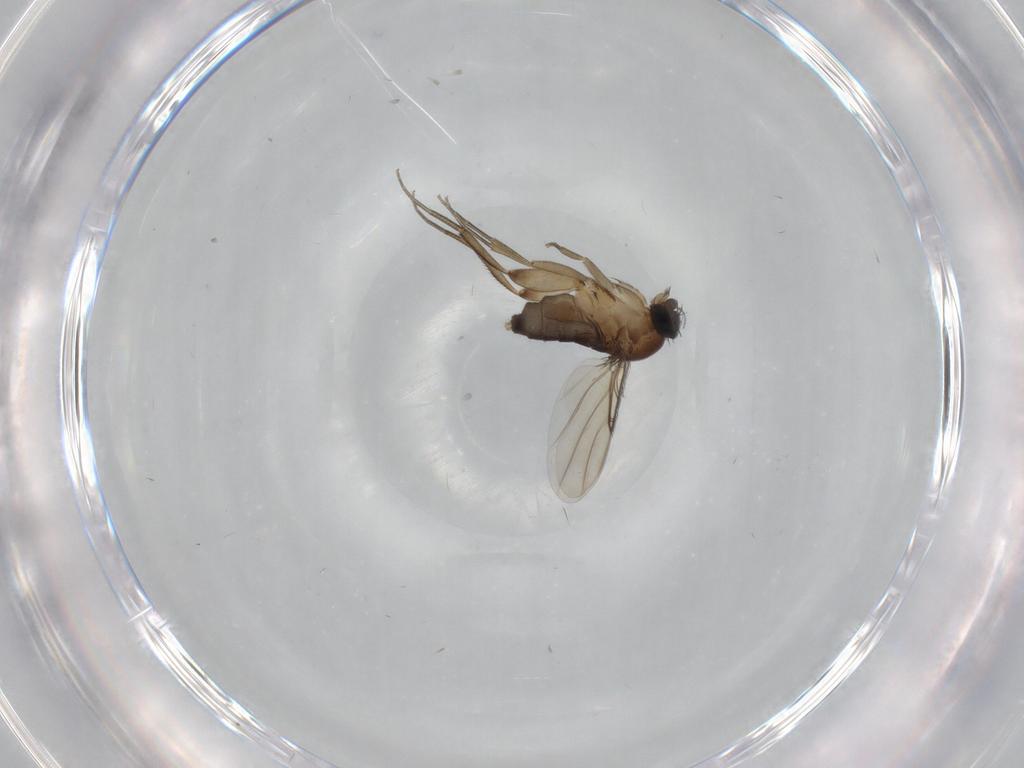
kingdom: Animalia
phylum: Arthropoda
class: Insecta
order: Diptera
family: Phoridae
